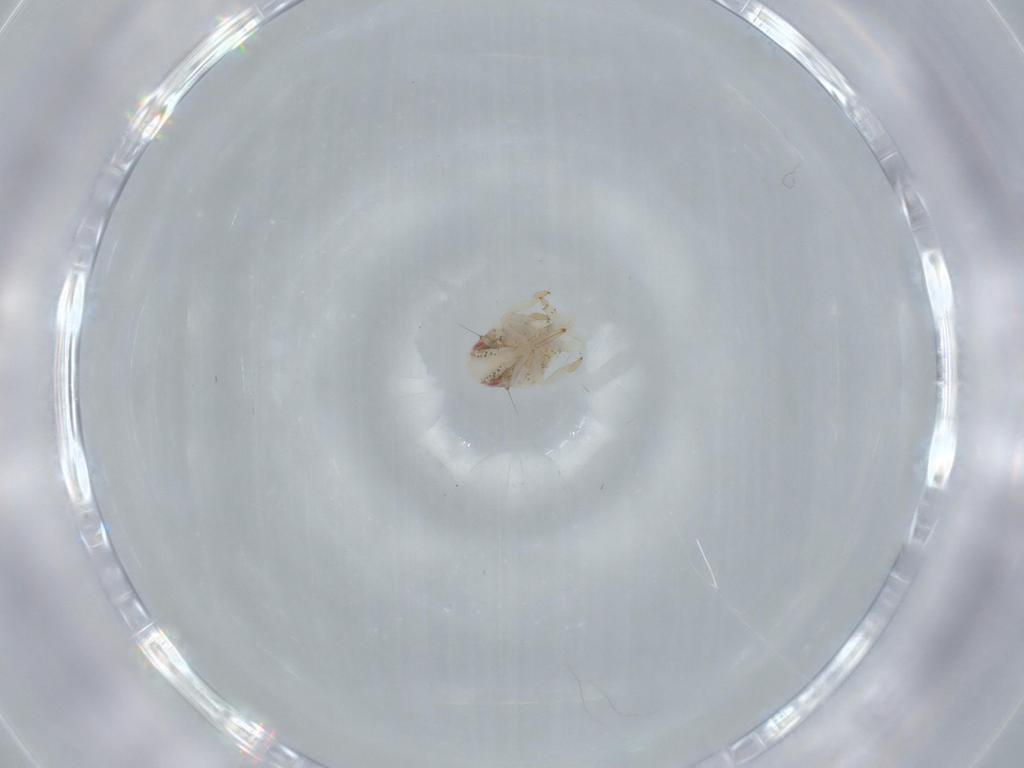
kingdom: Animalia
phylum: Arthropoda
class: Insecta
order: Hemiptera
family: Acanaloniidae
